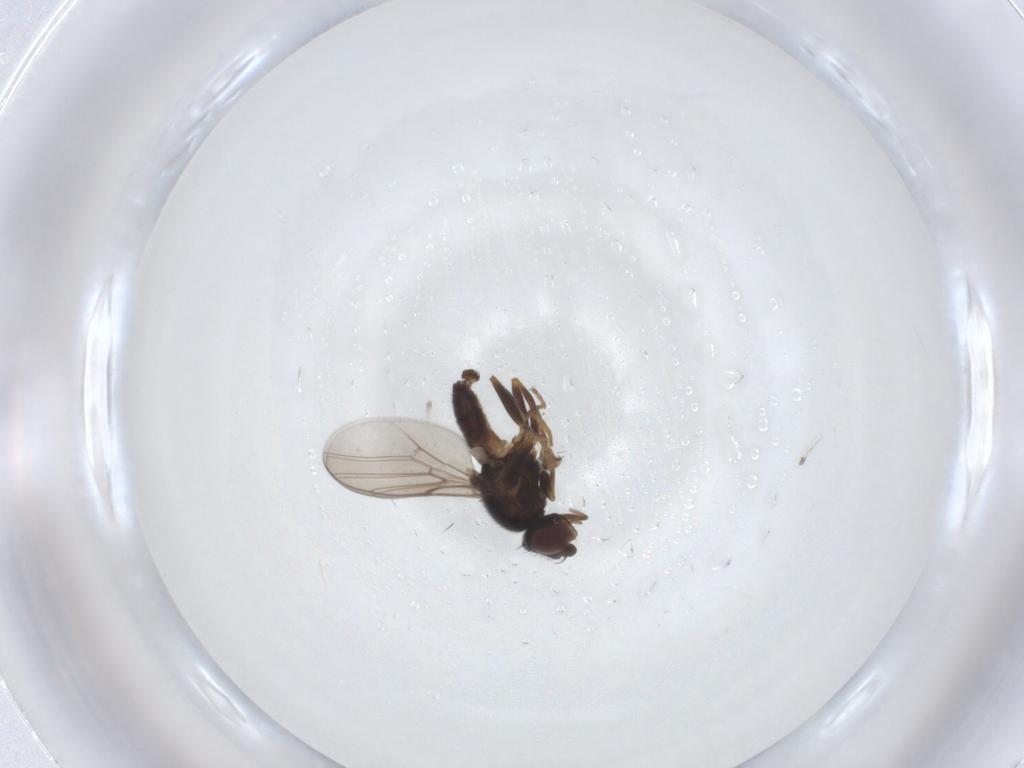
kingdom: Animalia
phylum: Arthropoda
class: Insecta
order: Diptera
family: Chloropidae
